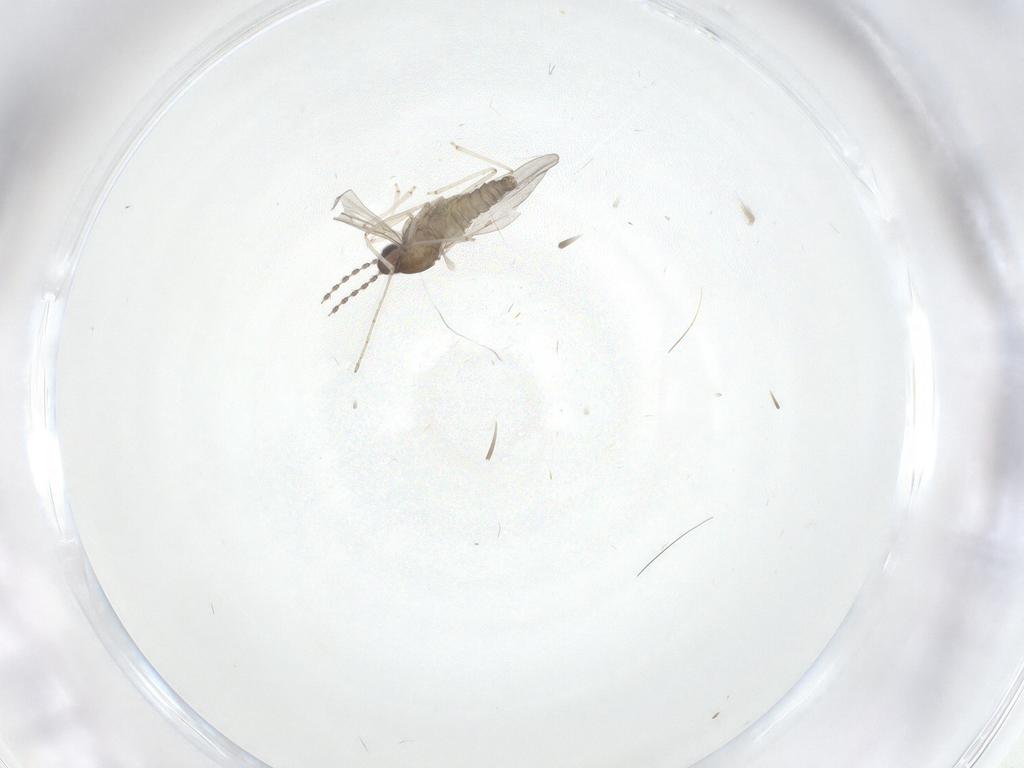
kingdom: Animalia
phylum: Arthropoda
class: Insecta
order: Diptera
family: Cecidomyiidae
